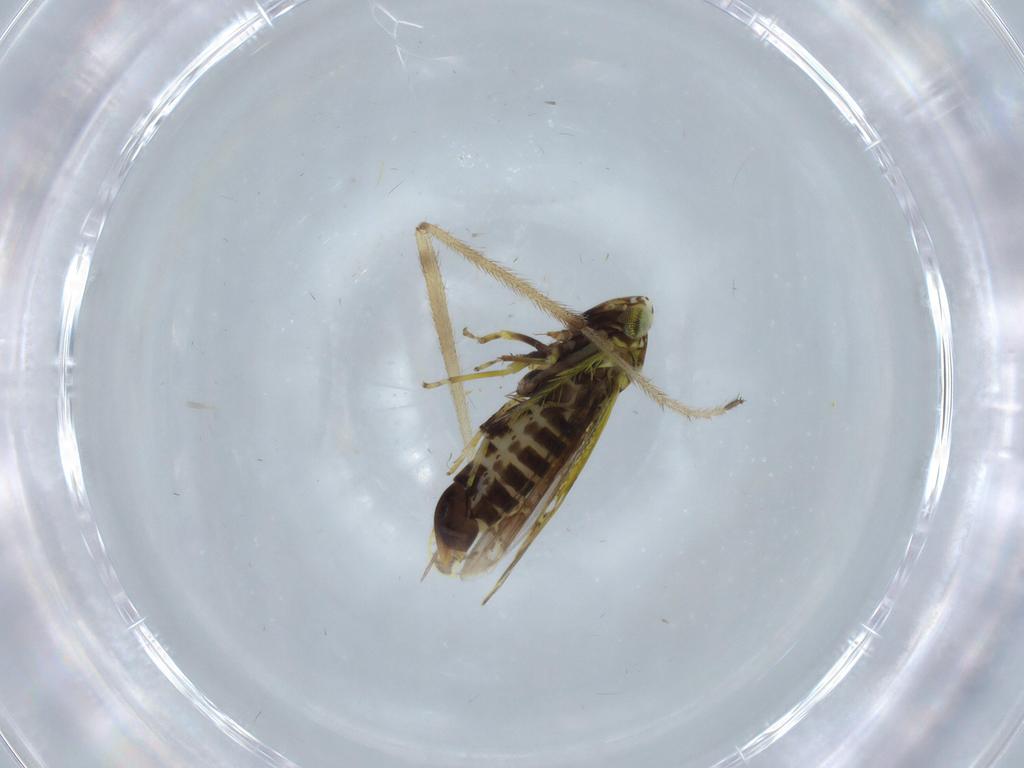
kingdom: Animalia
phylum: Arthropoda
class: Insecta
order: Hemiptera
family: Cicadellidae
